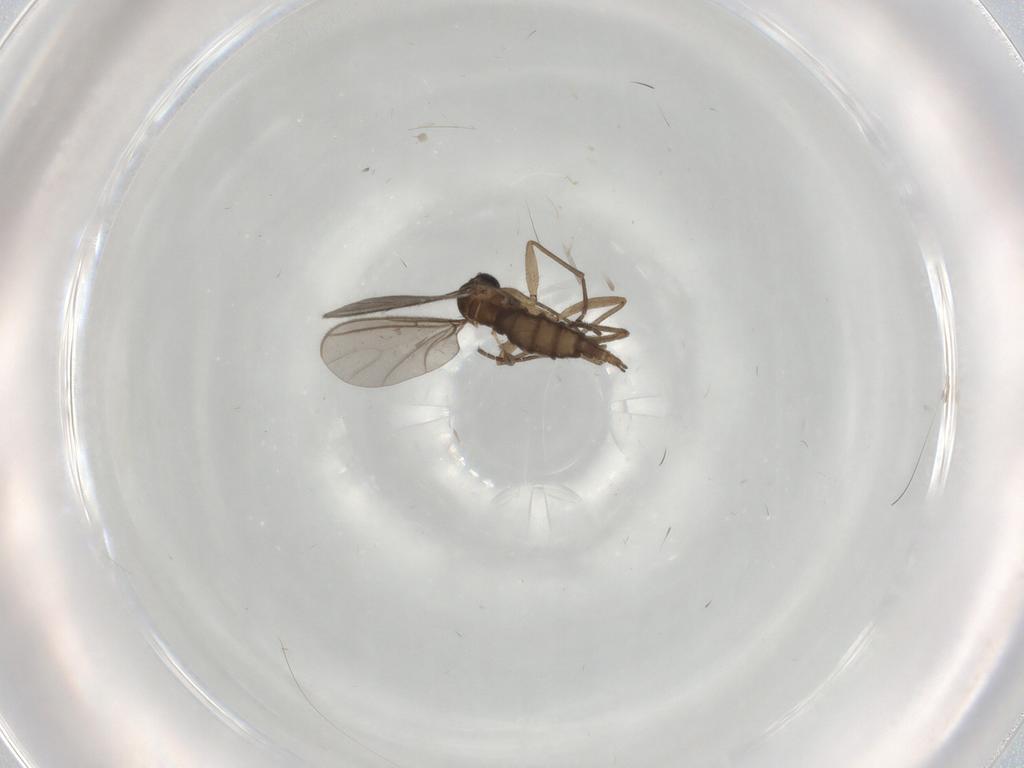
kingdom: Animalia
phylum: Arthropoda
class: Insecta
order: Diptera
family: Sciaridae
